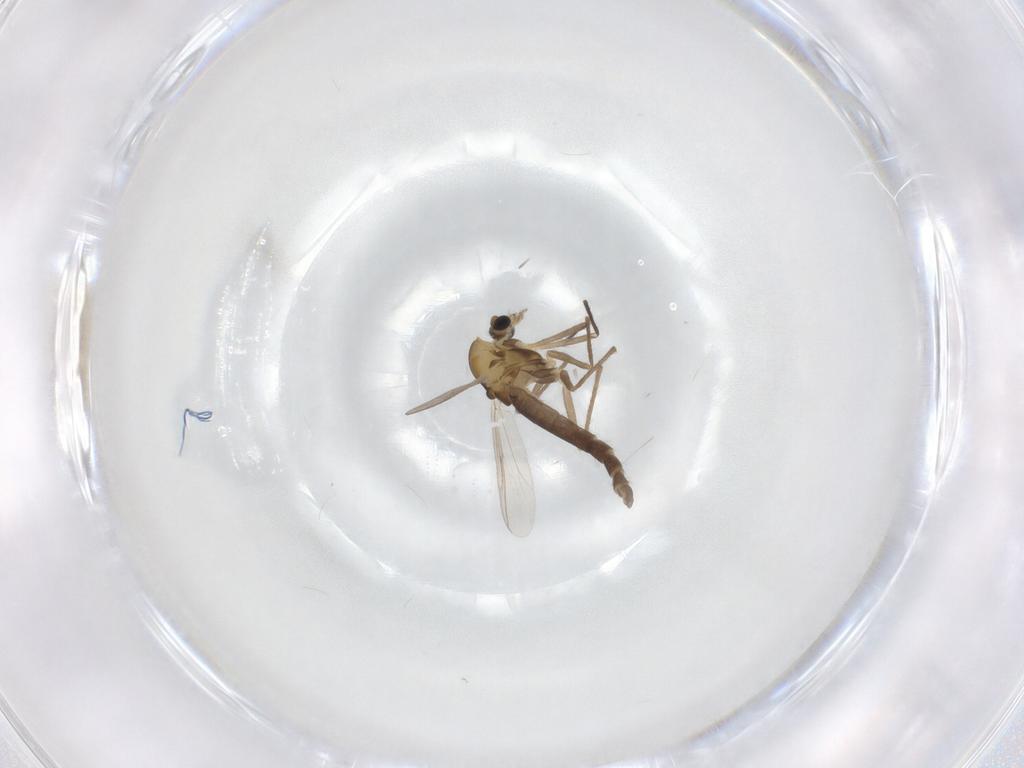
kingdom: Animalia
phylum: Arthropoda
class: Insecta
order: Diptera
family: Chironomidae
